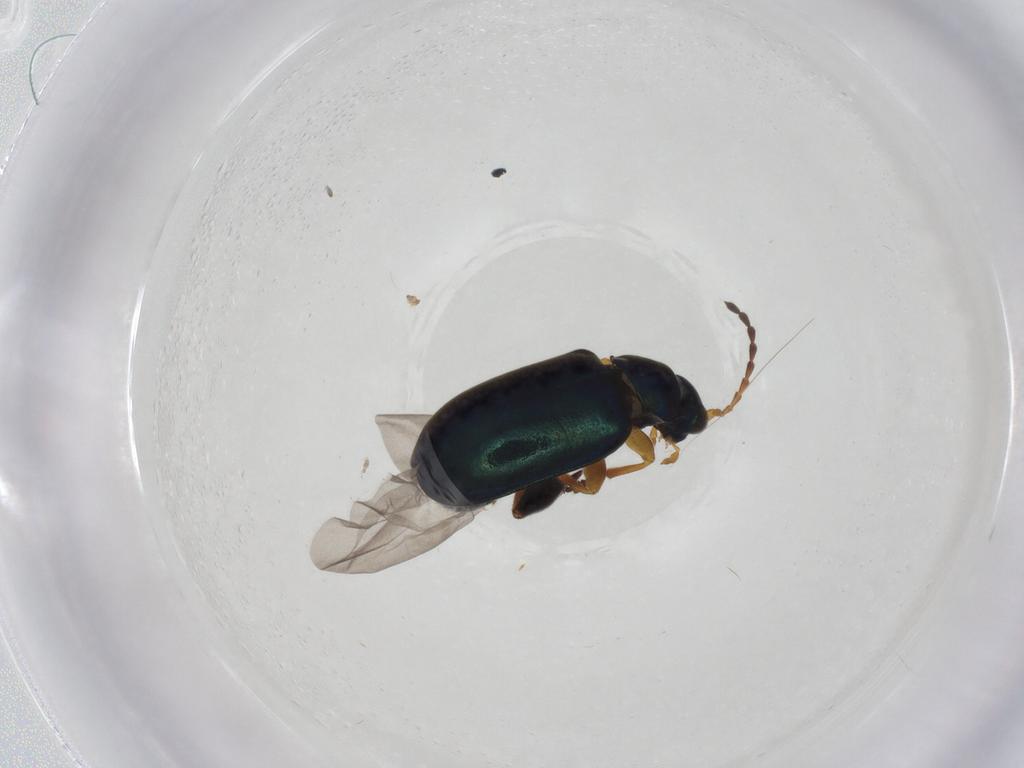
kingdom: Animalia
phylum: Arthropoda
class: Insecta
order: Coleoptera
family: Chrysomelidae
